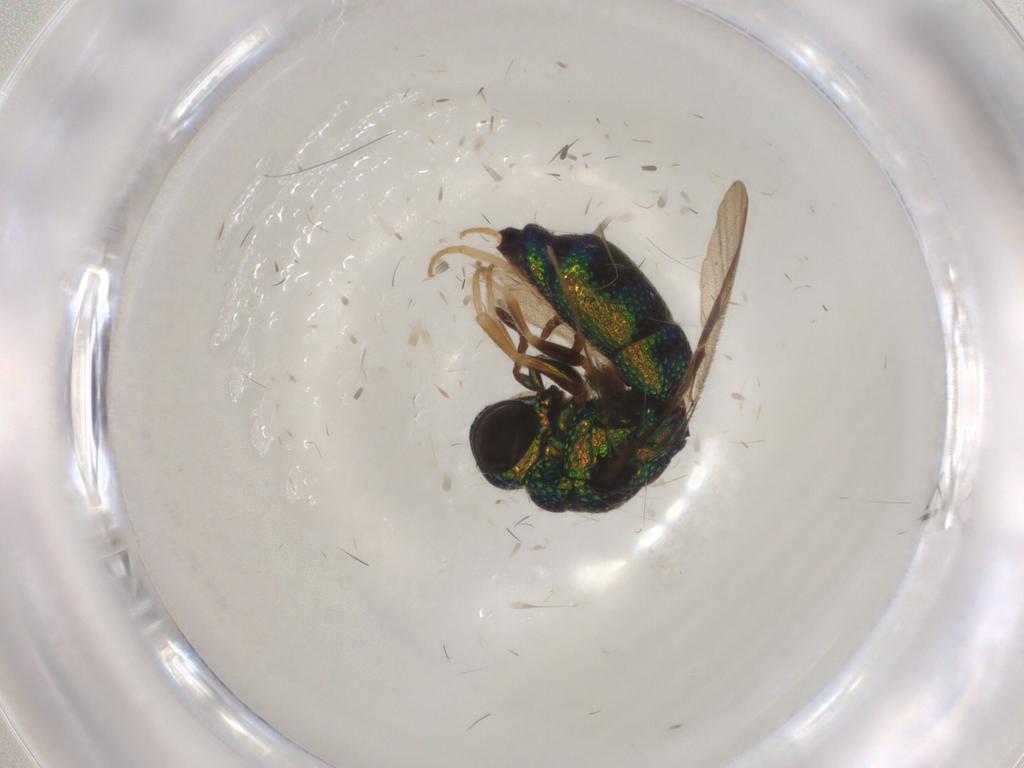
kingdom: Animalia
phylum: Arthropoda
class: Insecta
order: Hymenoptera
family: Chrysididae
